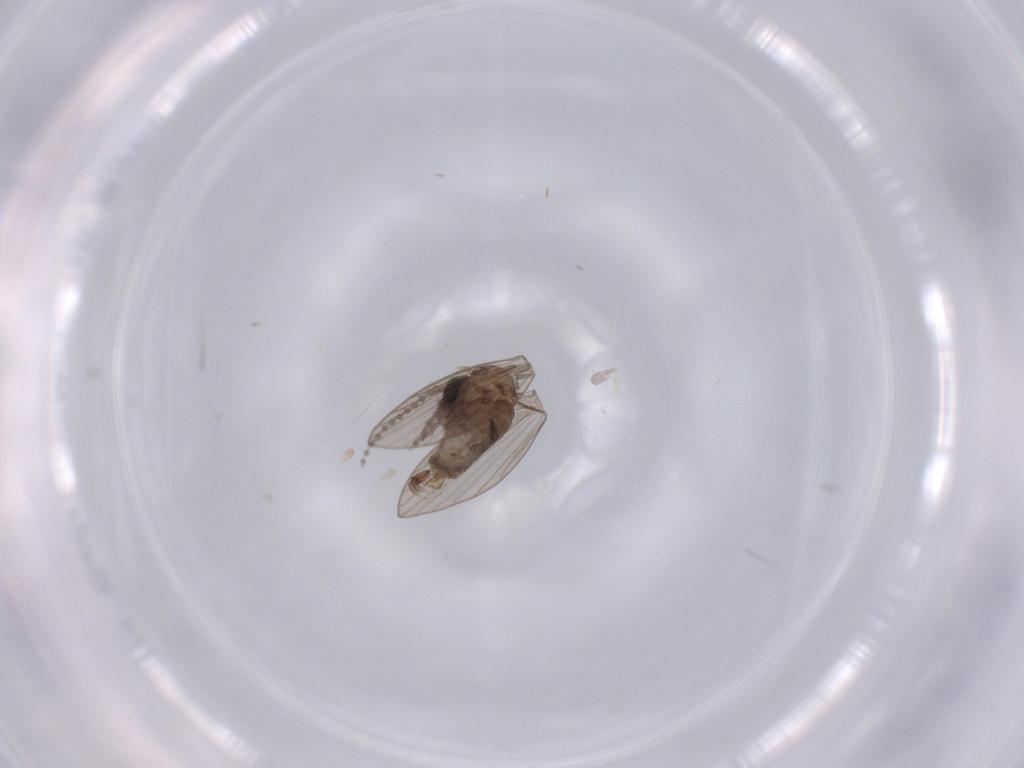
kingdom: Animalia
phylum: Arthropoda
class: Insecta
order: Diptera
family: Psychodidae
